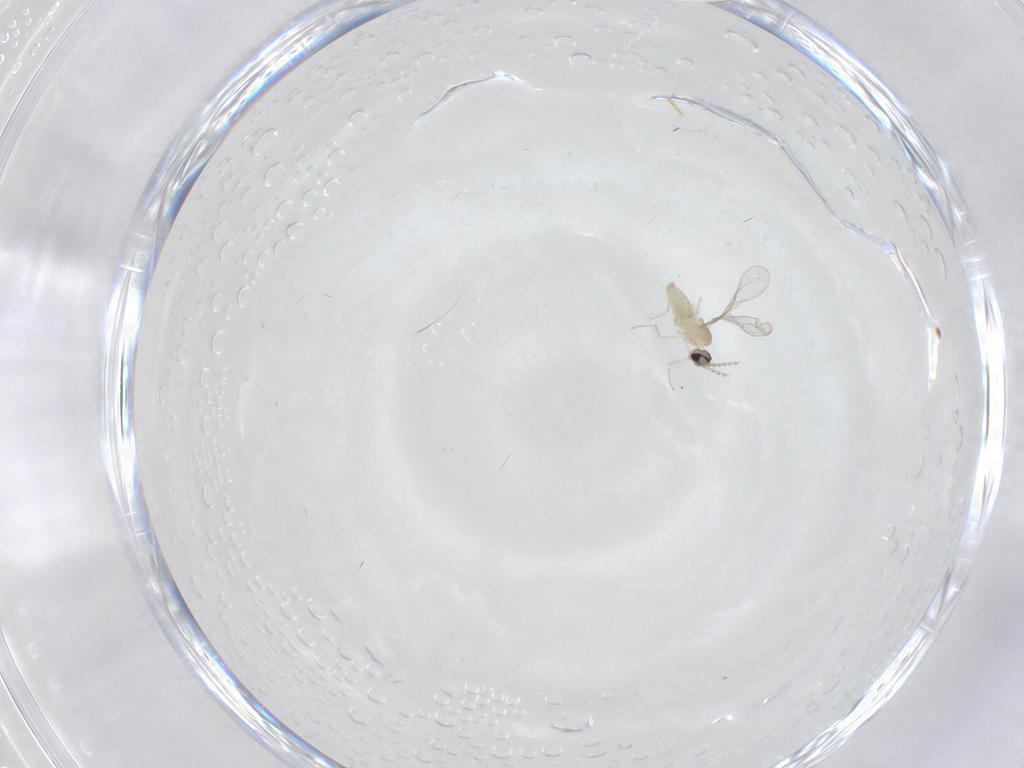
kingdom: Animalia
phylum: Arthropoda
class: Insecta
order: Diptera
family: Cecidomyiidae
